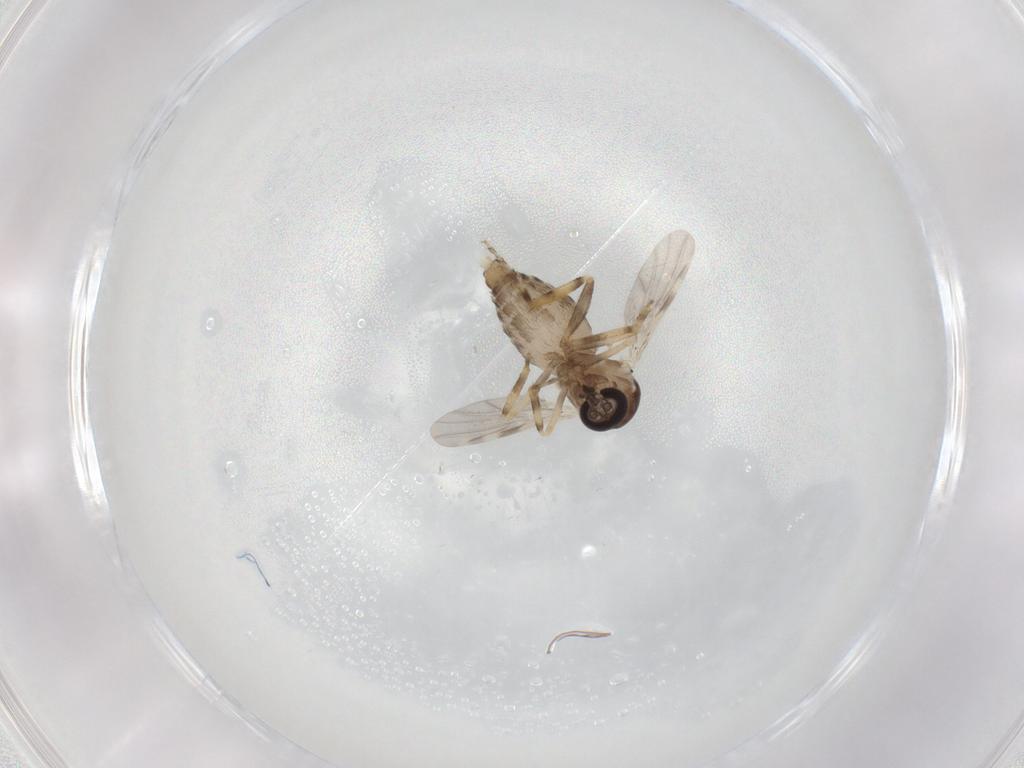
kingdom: Animalia
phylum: Arthropoda
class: Insecta
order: Diptera
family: Ceratopogonidae
